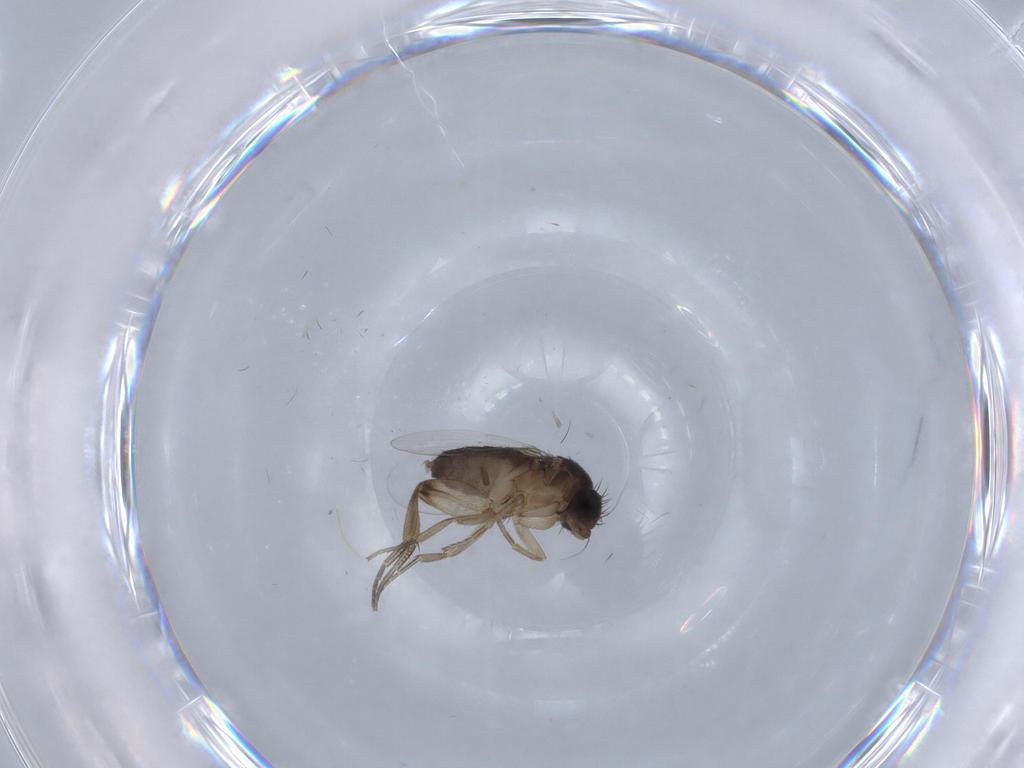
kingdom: Animalia
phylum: Arthropoda
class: Insecta
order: Diptera
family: Phoridae
